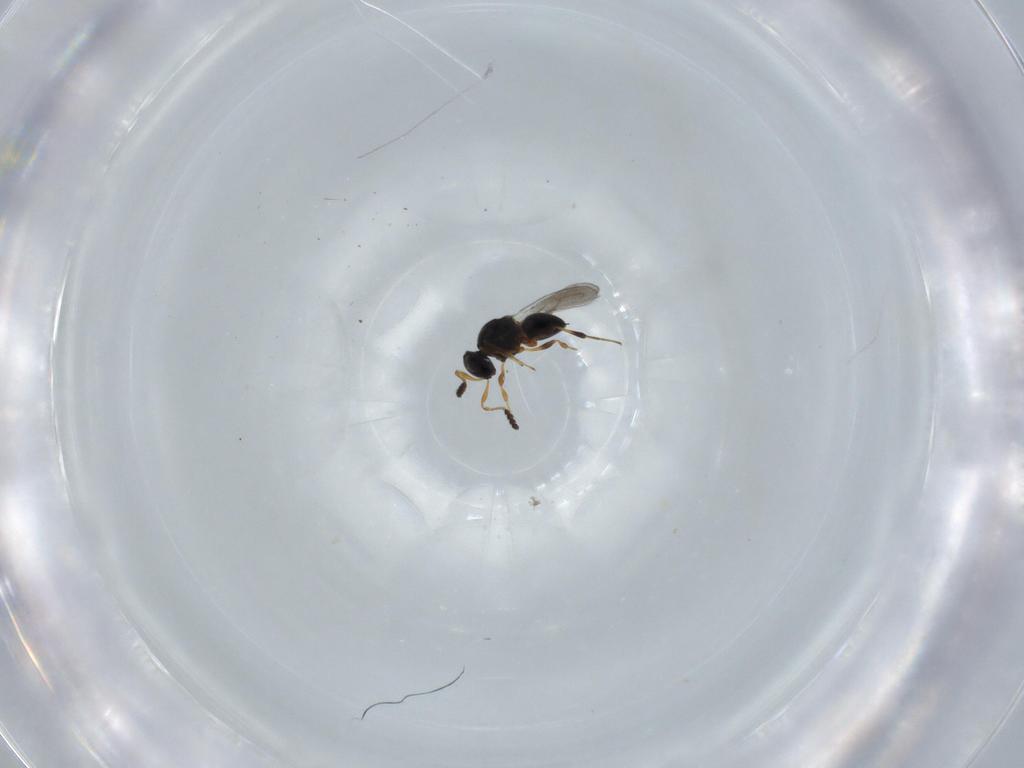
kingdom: Animalia
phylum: Arthropoda
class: Insecta
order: Hymenoptera
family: Platygastridae
